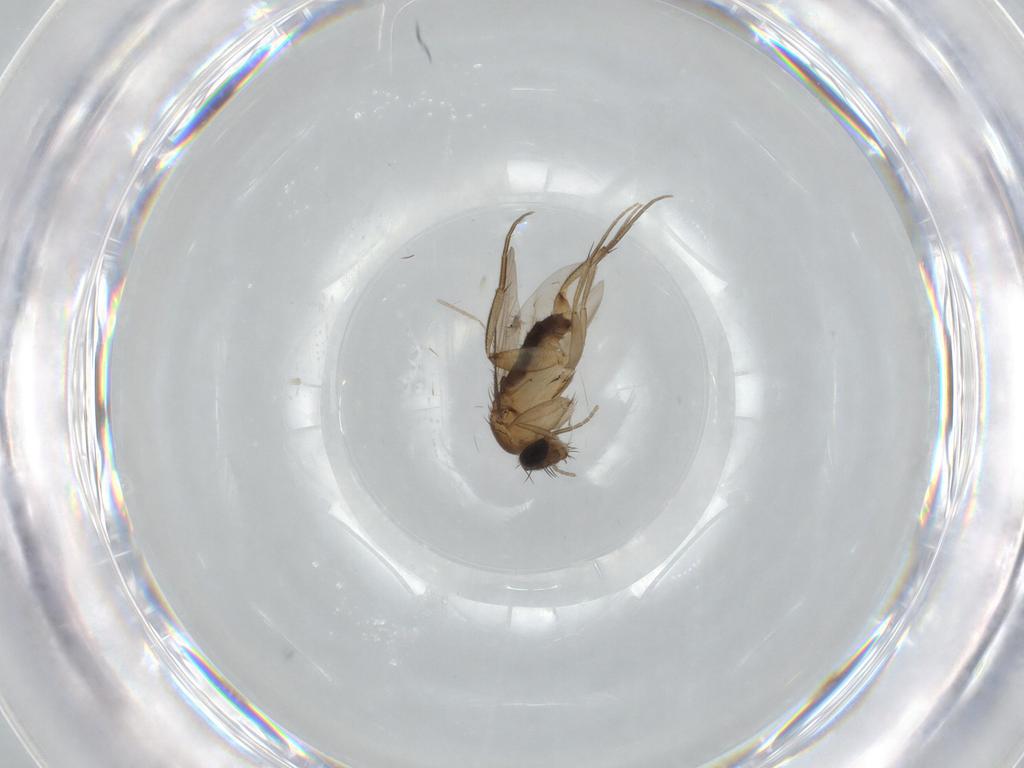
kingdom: Animalia
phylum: Arthropoda
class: Insecta
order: Diptera
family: Phoridae
